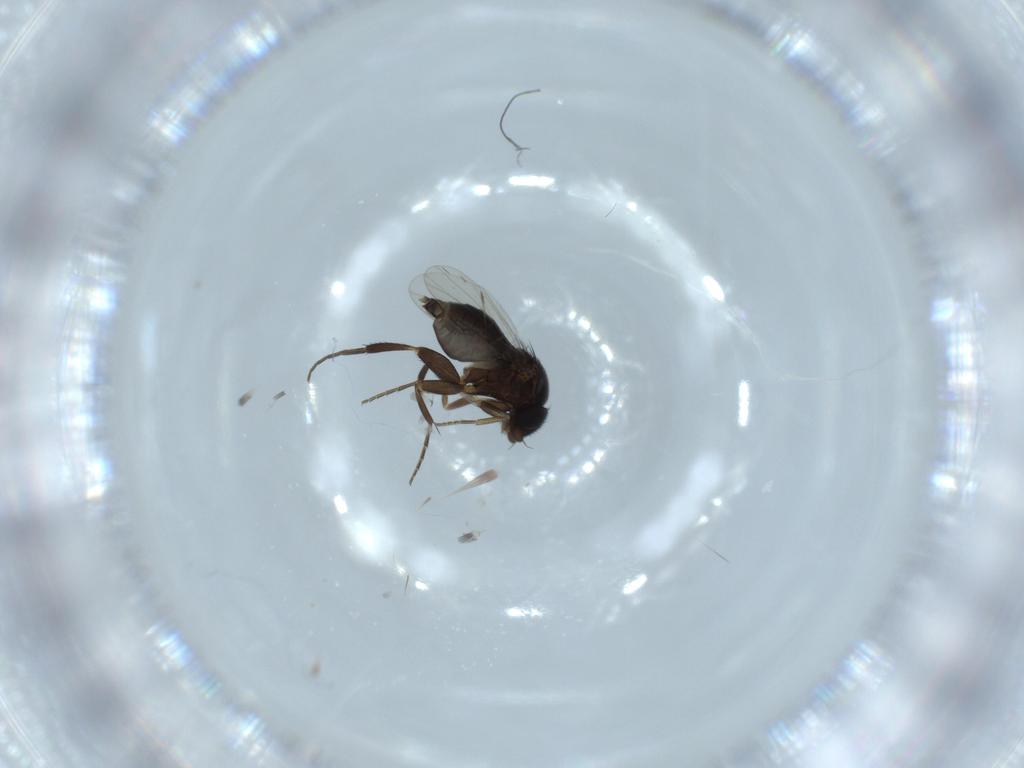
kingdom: Animalia
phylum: Arthropoda
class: Insecta
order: Diptera
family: Phoridae
